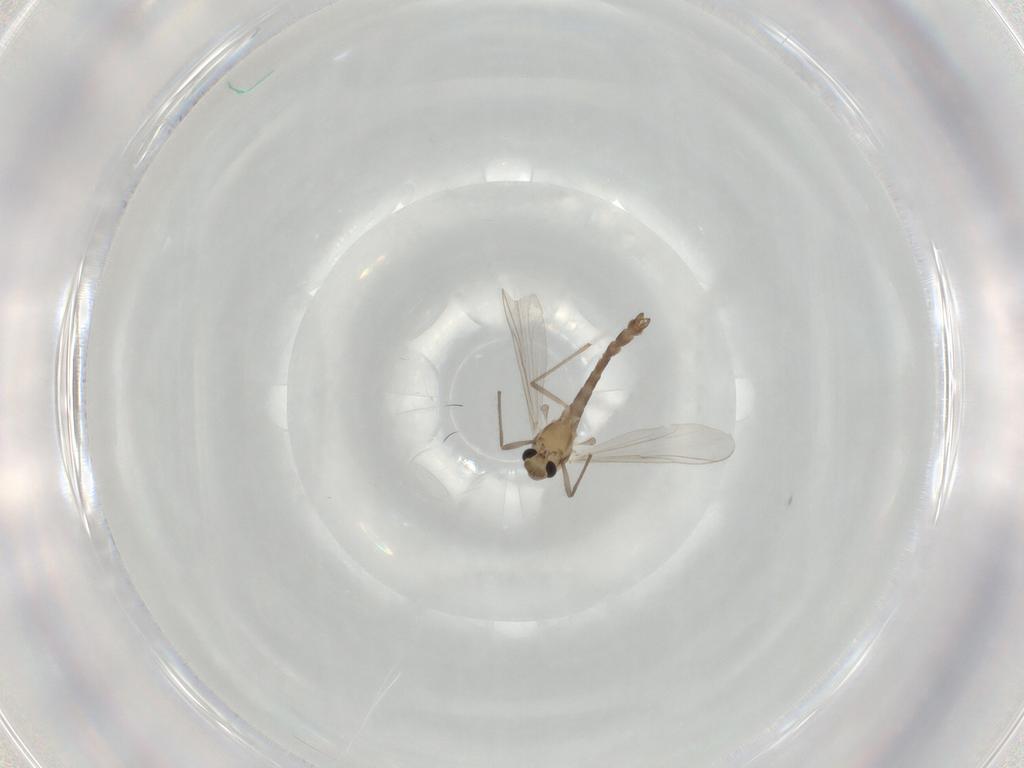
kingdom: Animalia
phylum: Arthropoda
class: Insecta
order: Diptera
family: Chironomidae
